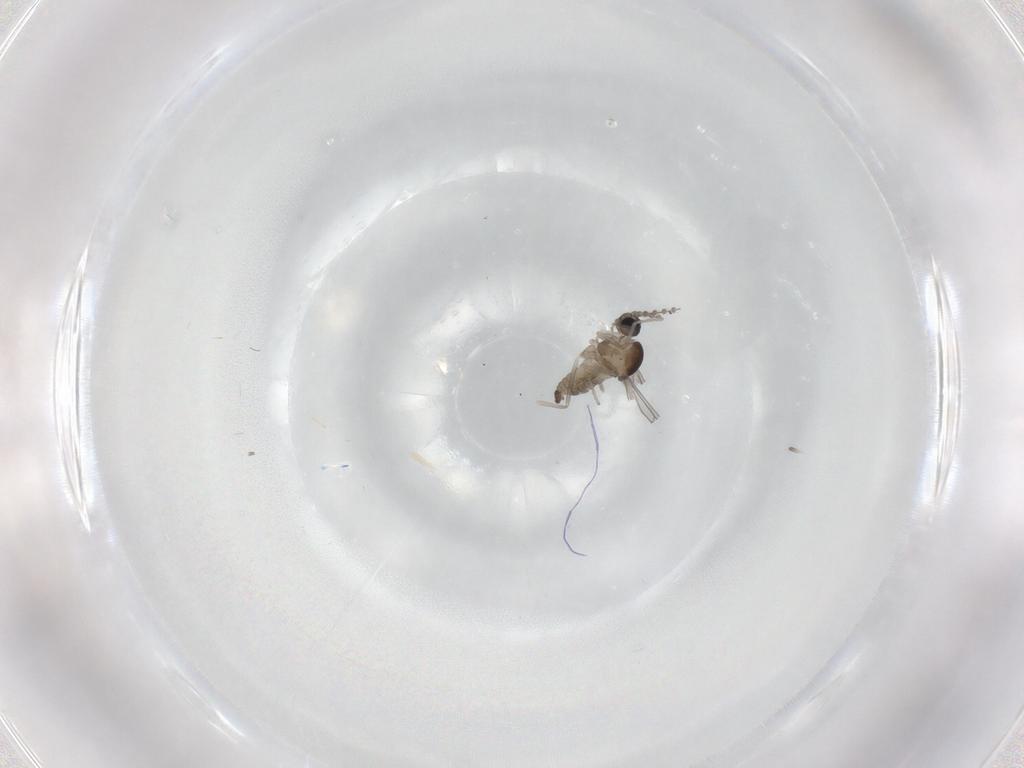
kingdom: Animalia
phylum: Arthropoda
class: Insecta
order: Diptera
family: Cecidomyiidae
